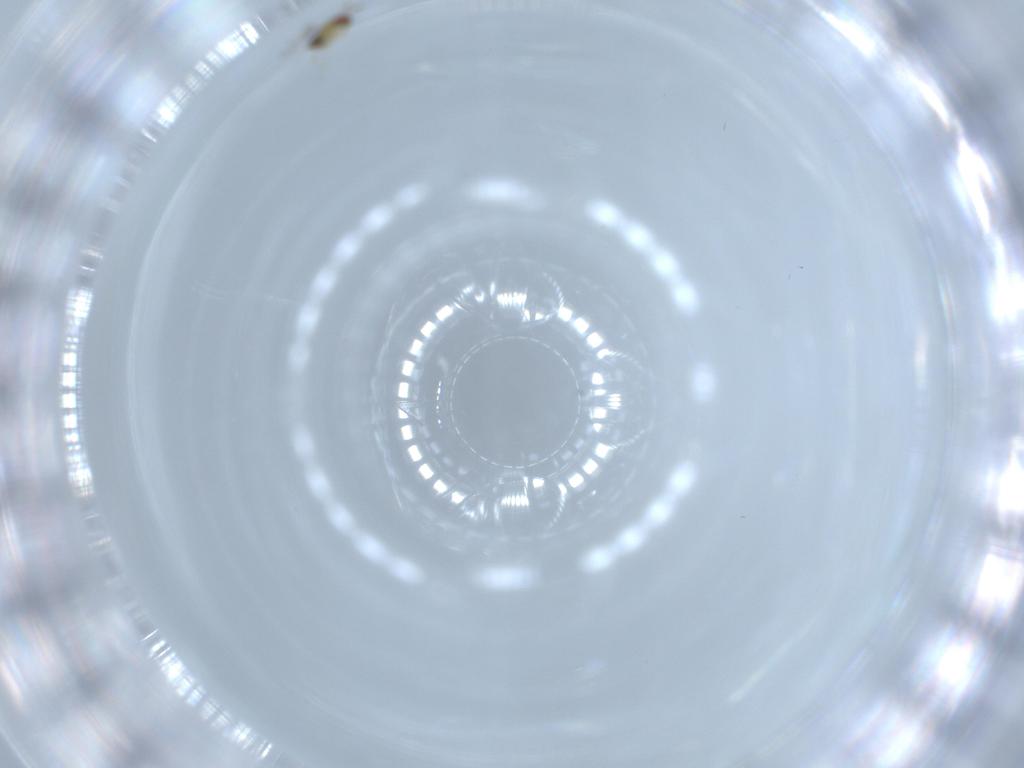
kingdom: Animalia
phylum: Arthropoda
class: Insecta
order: Hymenoptera
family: Trichogrammatidae
